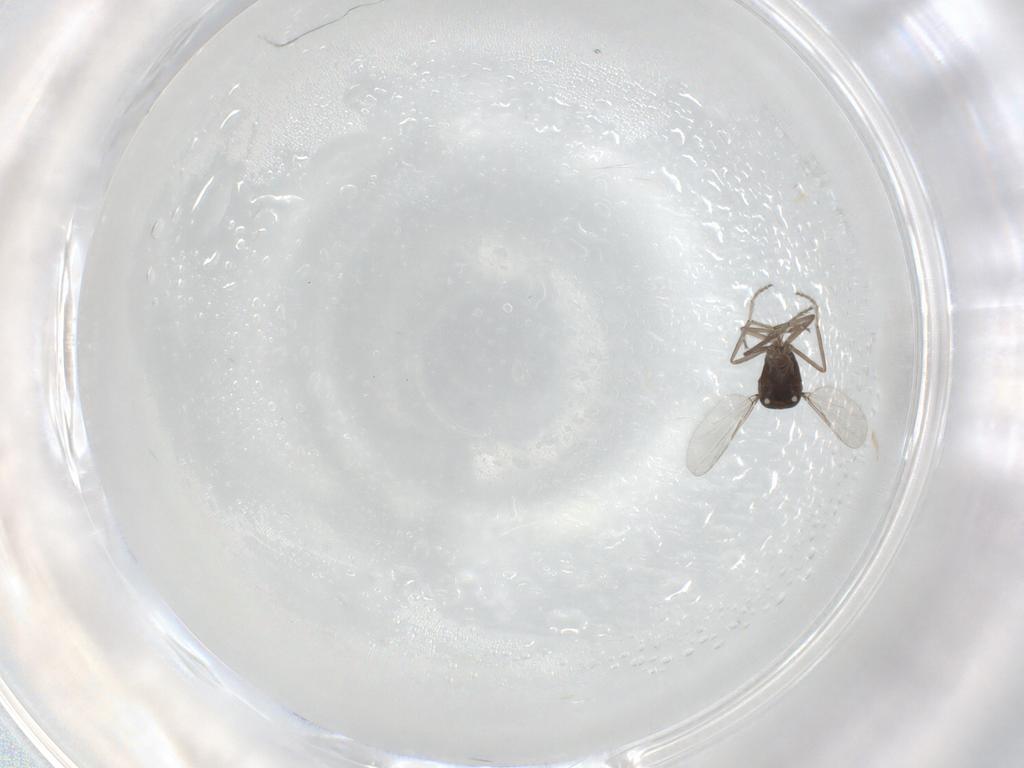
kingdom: Animalia
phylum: Arthropoda
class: Insecta
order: Diptera
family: Ceratopogonidae
